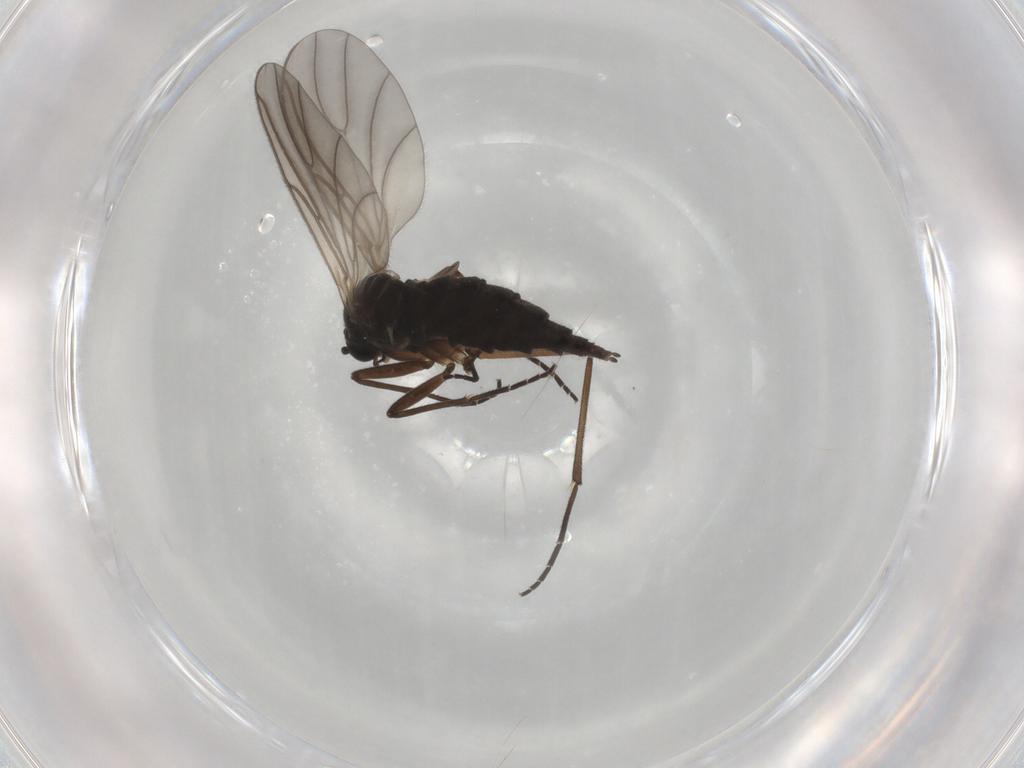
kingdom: Animalia
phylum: Arthropoda
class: Insecta
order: Diptera
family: Sciaridae
